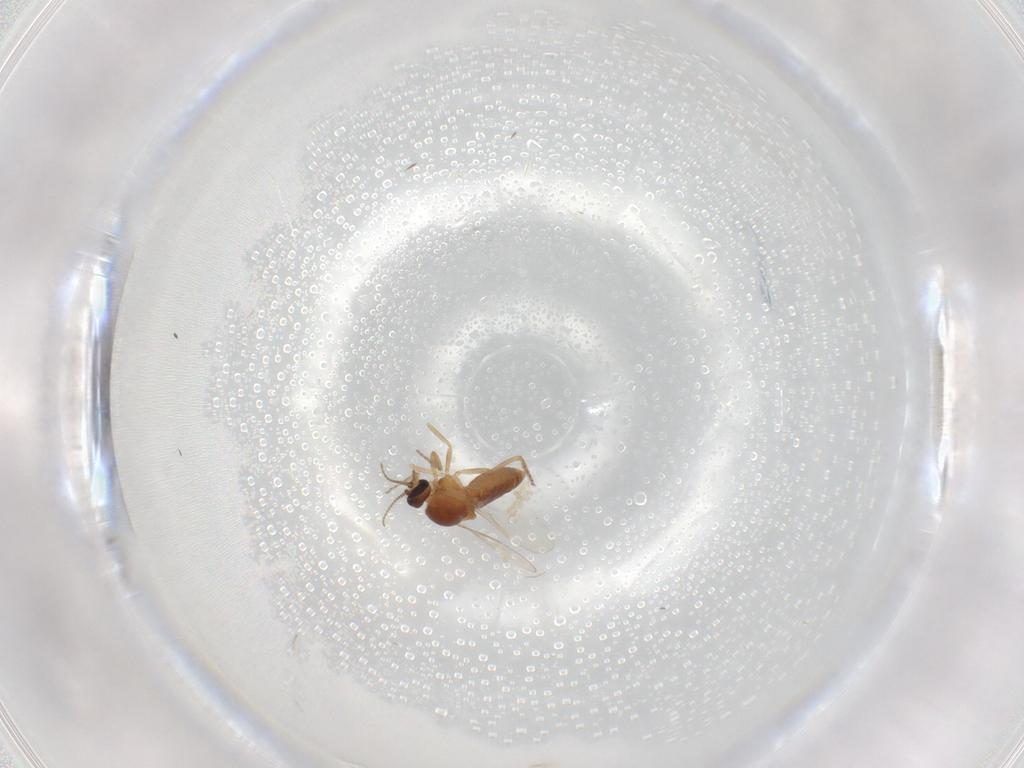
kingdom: Animalia
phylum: Arthropoda
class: Insecta
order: Diptera
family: Ceratopogonidae
